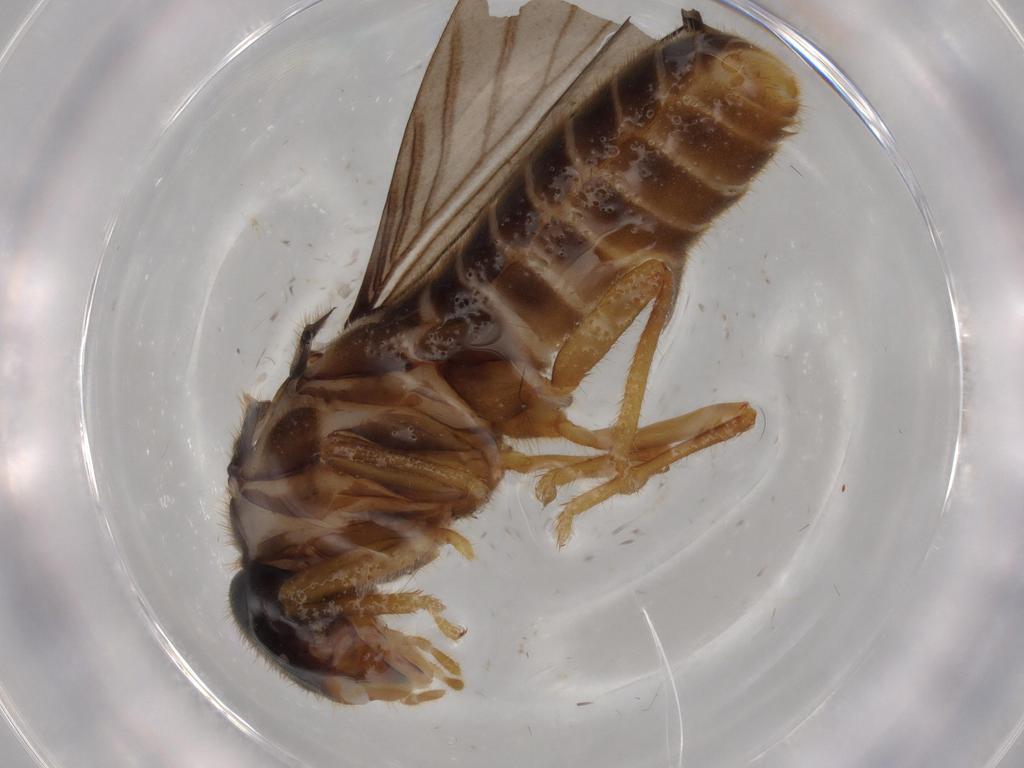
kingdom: Animalia
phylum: Arthropoda
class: Insecta
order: Blattodea
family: Termitidae
